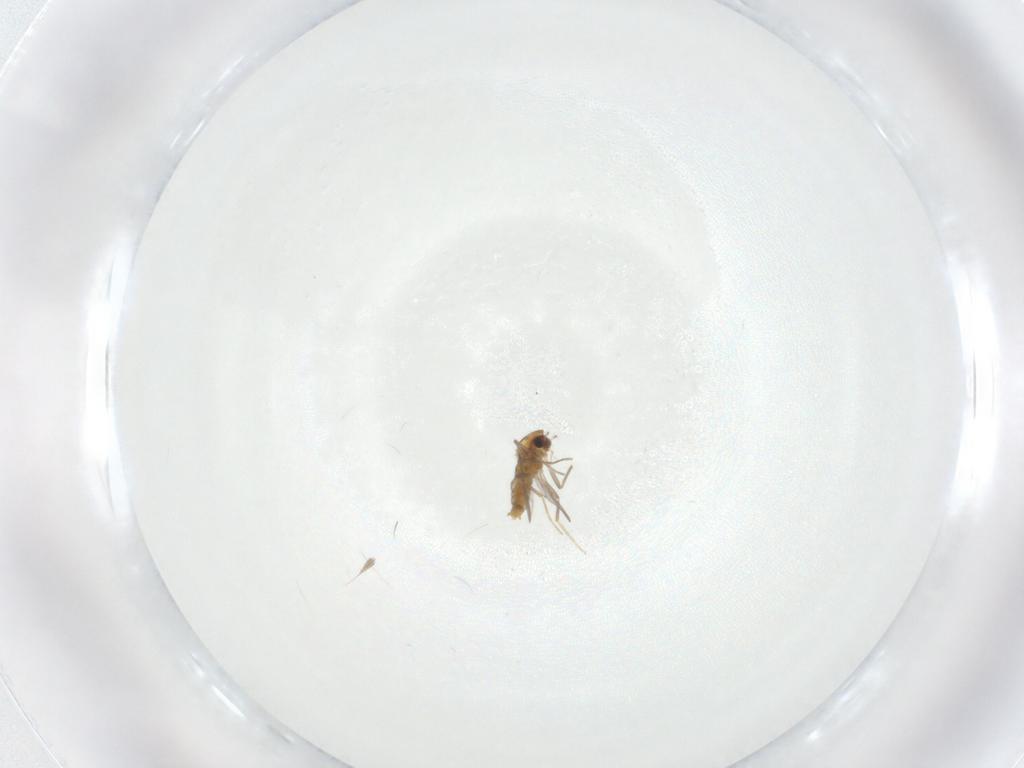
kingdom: Animalia
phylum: Arthropoda
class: Insecta
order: Diptera
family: Chironomidae
